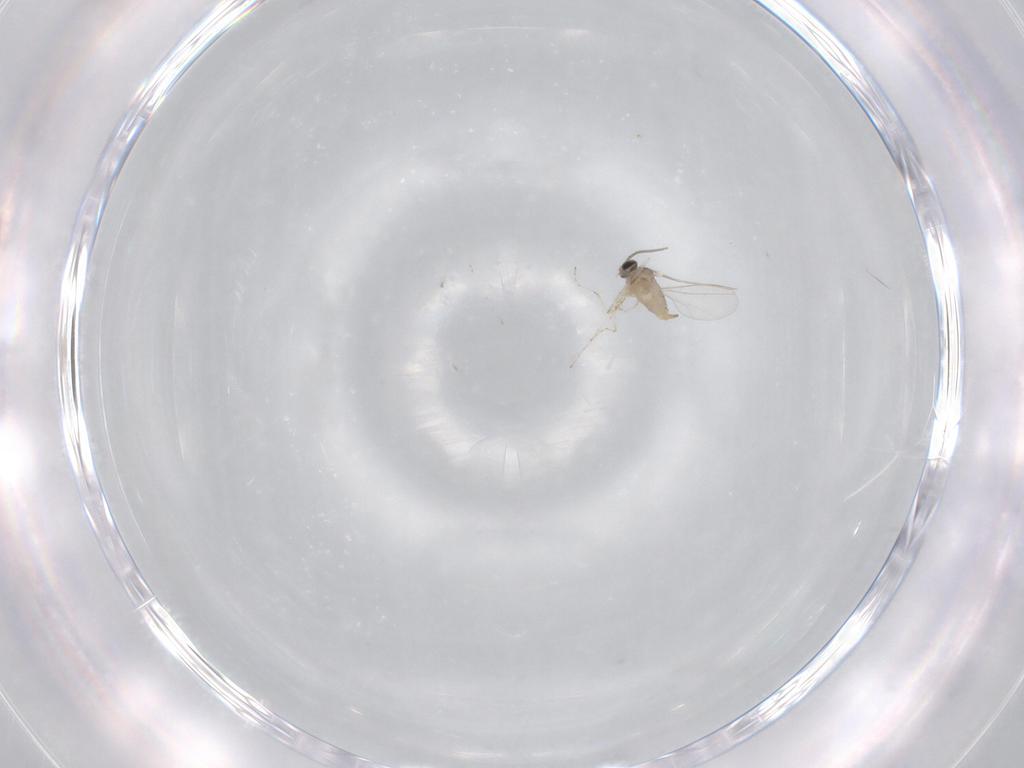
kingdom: Animalia
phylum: Arthropoda
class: Insecta
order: Diptera
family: Cecidomyiidae
